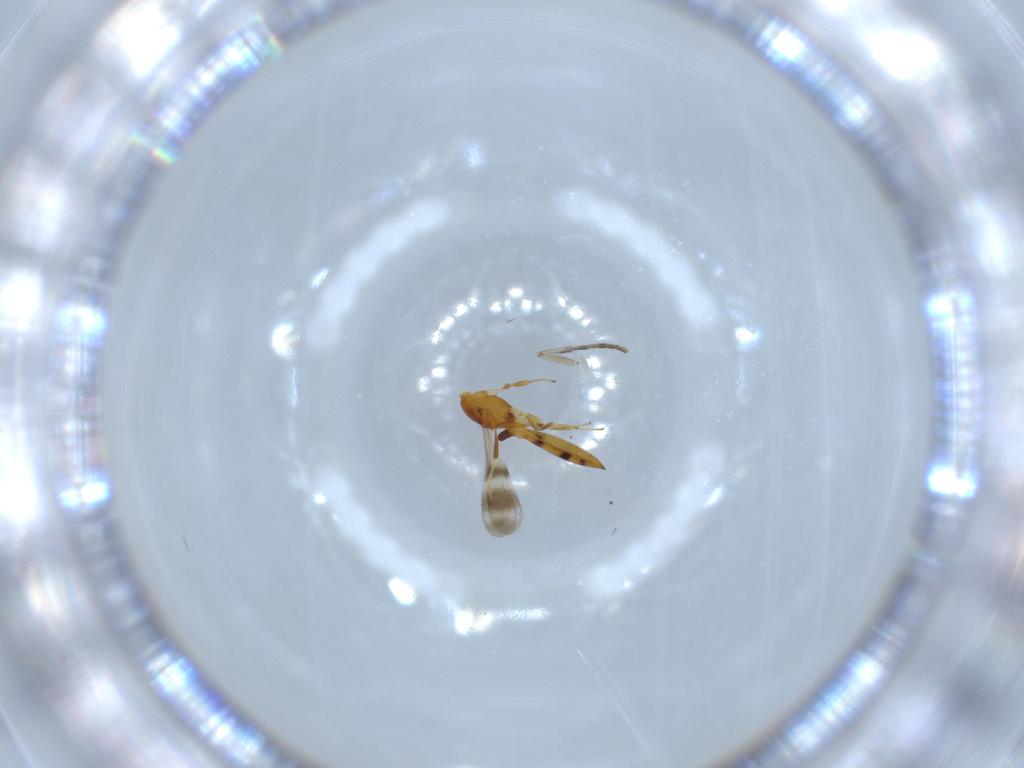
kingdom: Animalia
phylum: Arthropoda
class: Insecta
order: Hymenoptera
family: Scelionidae
